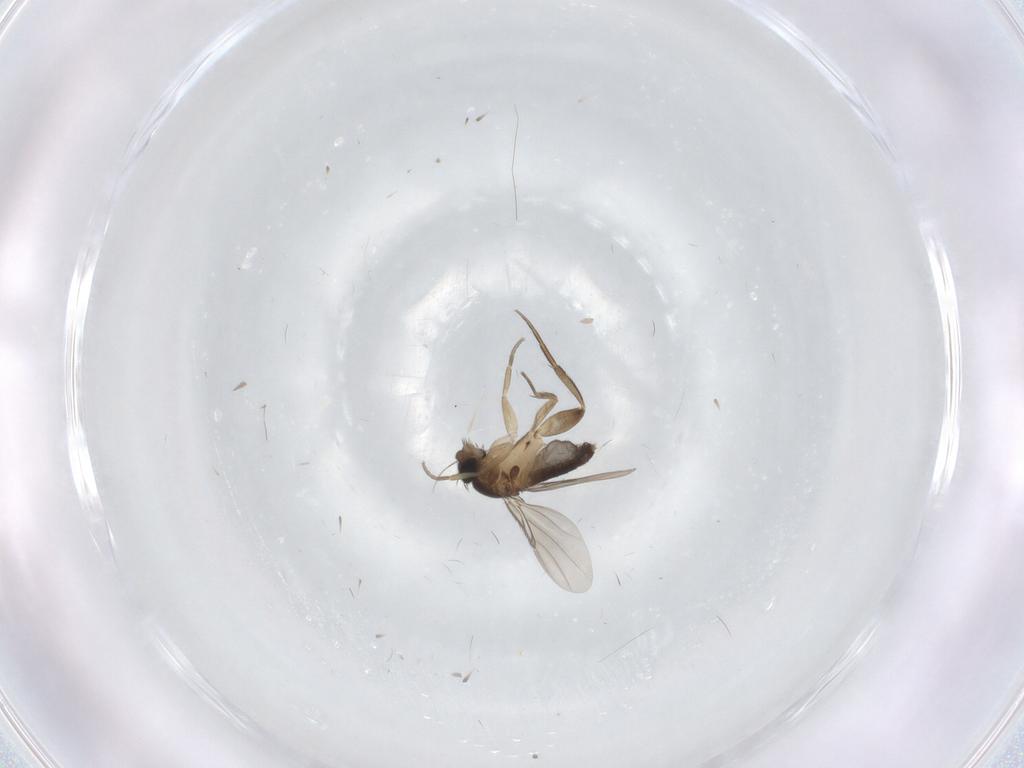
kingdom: Animalia
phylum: Arthropoda
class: Insecta
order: Diptera
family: Phoridae
